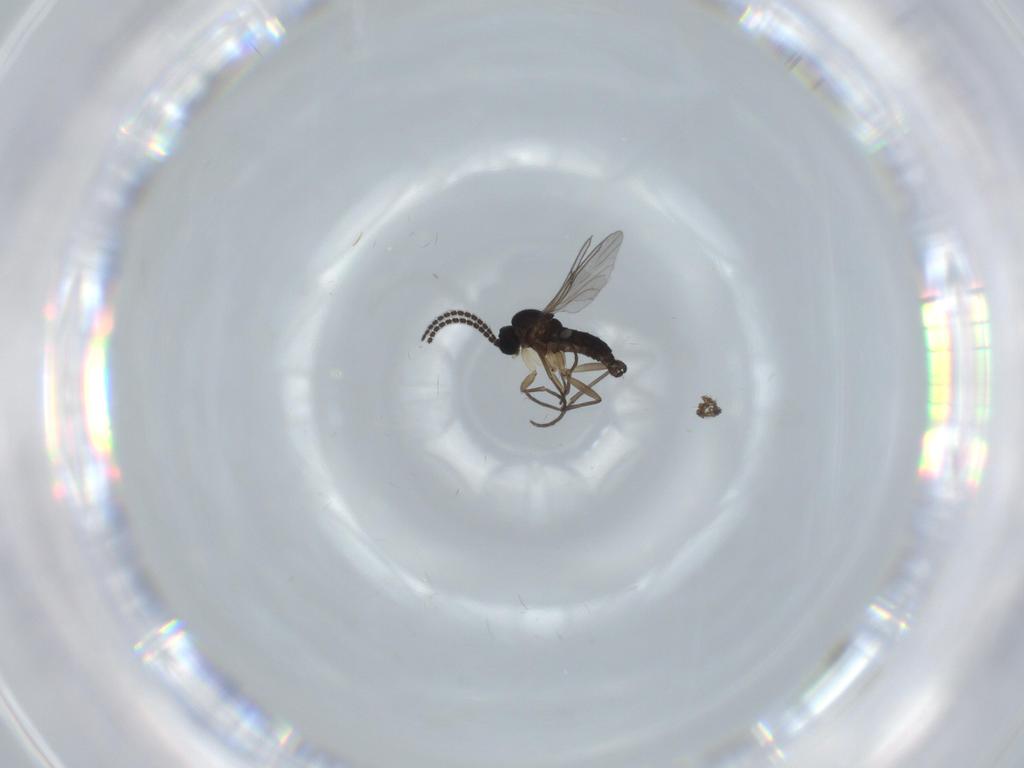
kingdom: Animalia
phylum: Arthropoda
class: Insecta
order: Diptera
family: Sciaridae
